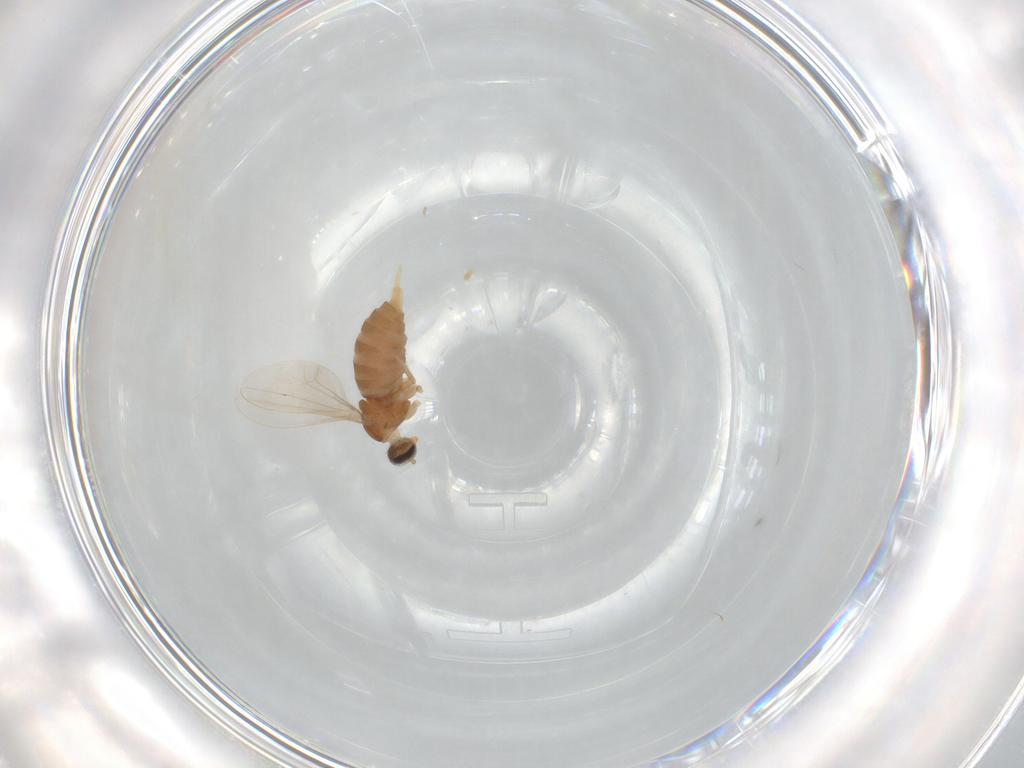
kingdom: Animalia
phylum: Arthropoda
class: Insecta
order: Diptera
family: Ceratopogonidae
